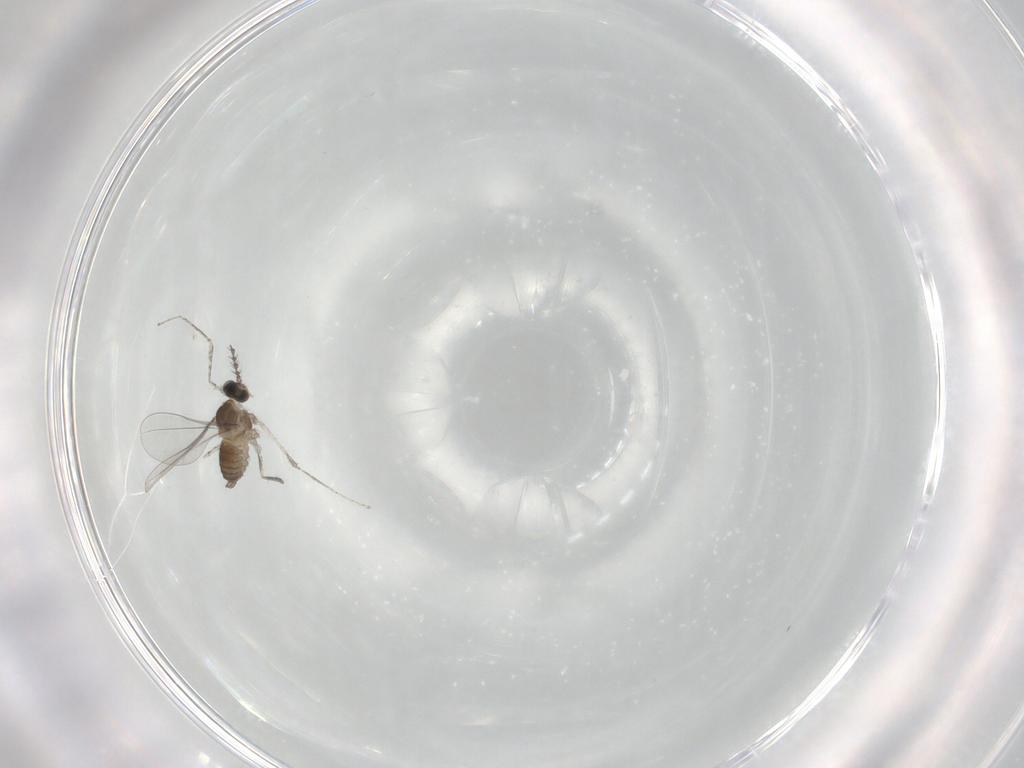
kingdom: Animalia
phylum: Arthropoda
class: Insecta
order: Diptera
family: Cecidomyiidae
